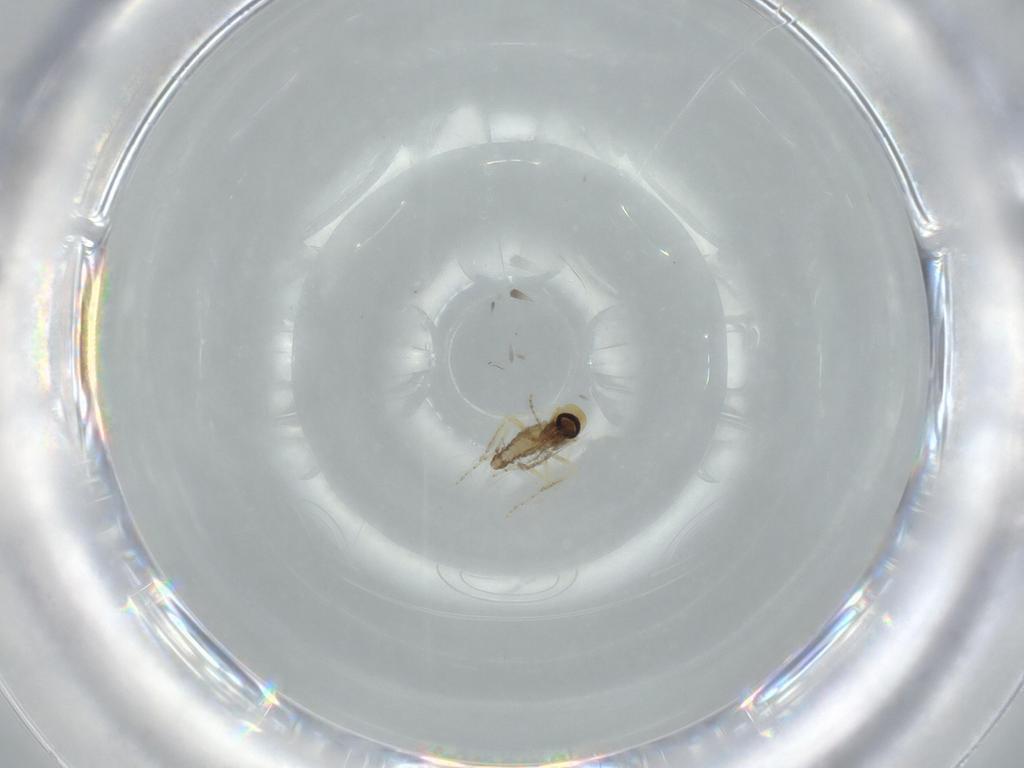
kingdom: Animalia
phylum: Arthropoda
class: Insecta
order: Diptera
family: Ceratopogonidae
